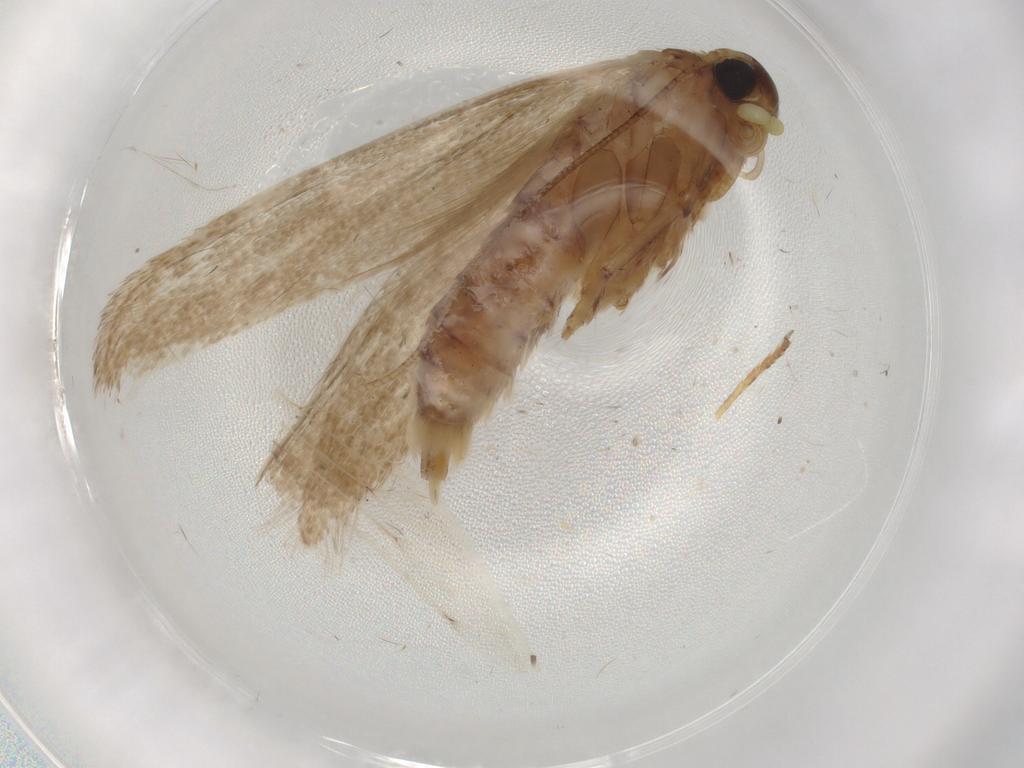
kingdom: Animalia
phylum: Arthropoda
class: Insecta
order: Lepidoptera
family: Blastobasidae
